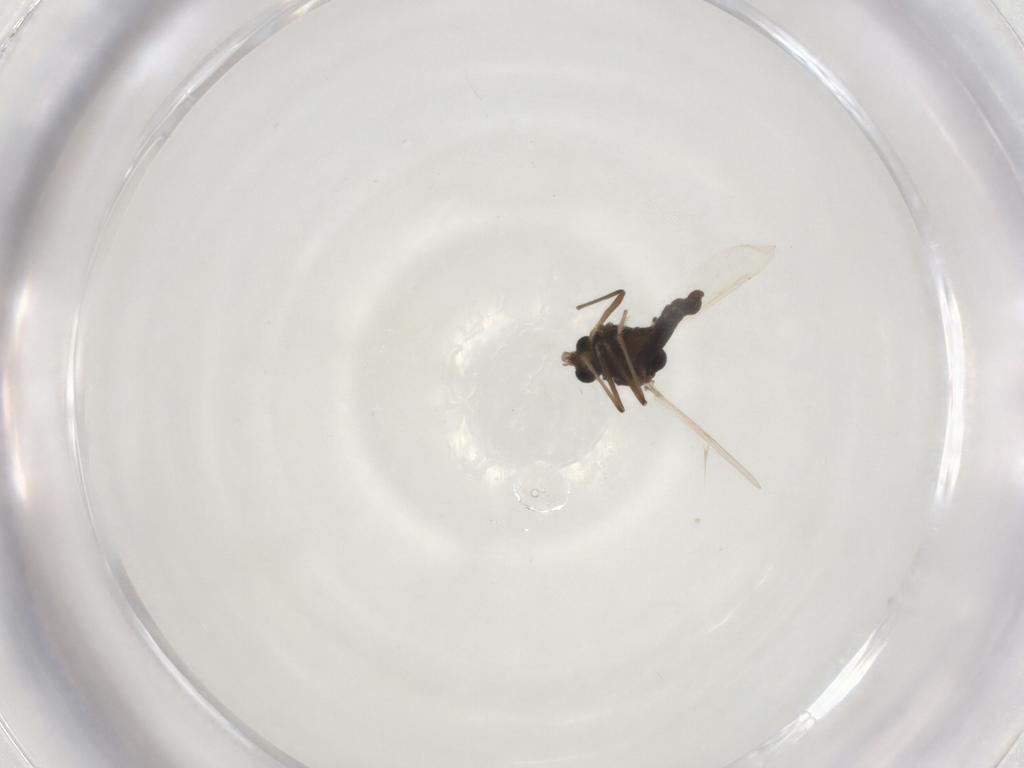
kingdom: Animalia
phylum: Arthropoda
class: Insecta
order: Diptera
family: Chironomidae
